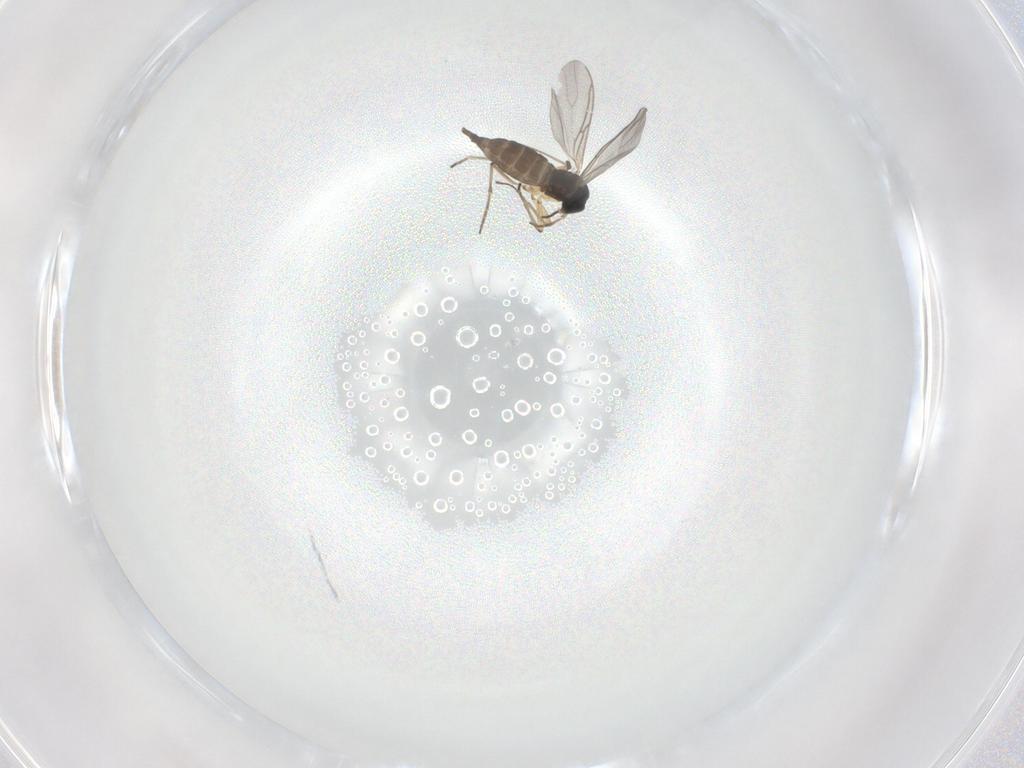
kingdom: Animalia
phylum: Arthropoda
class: Insecta
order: Diptera
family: Sciaridae
